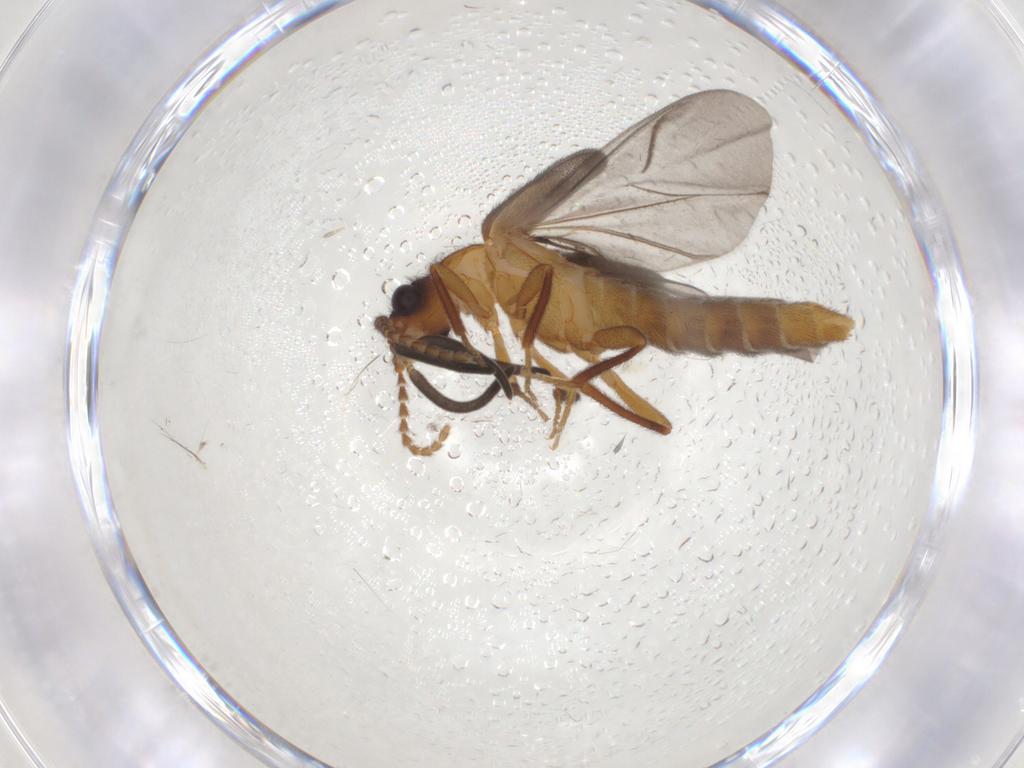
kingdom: Animalia
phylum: Arthropoda
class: Insecta
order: Coleoptera
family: Omethidae
